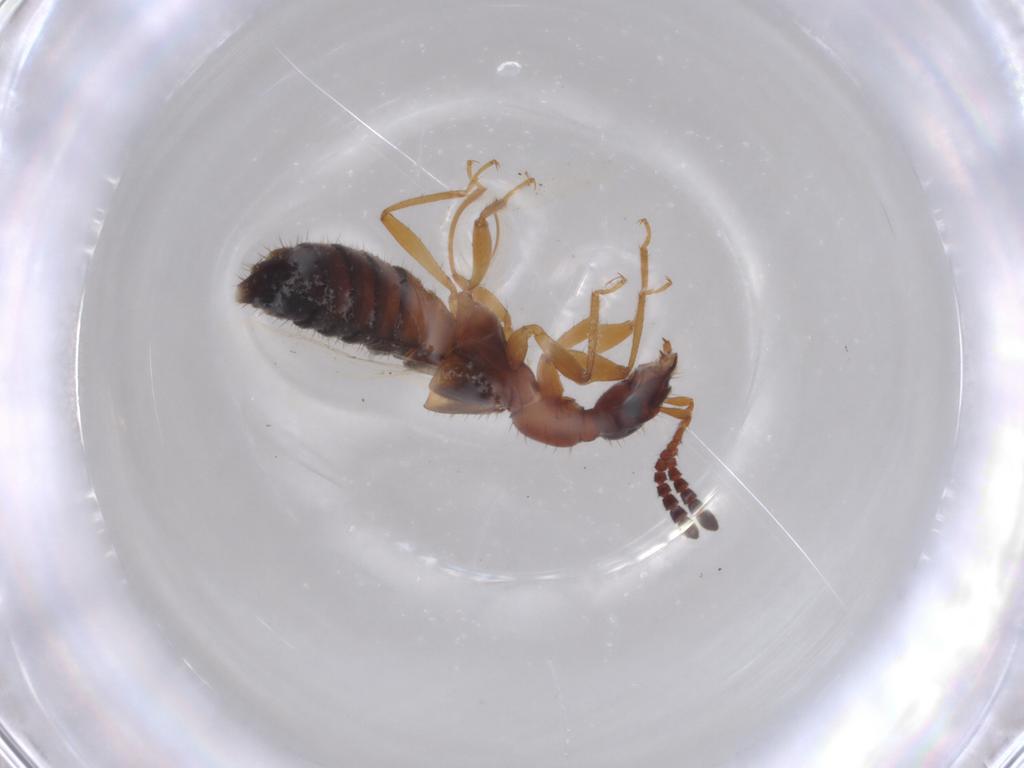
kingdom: Animalia
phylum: Arthropoda
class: Insecta
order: Coleoptera
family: Staphylinidae
